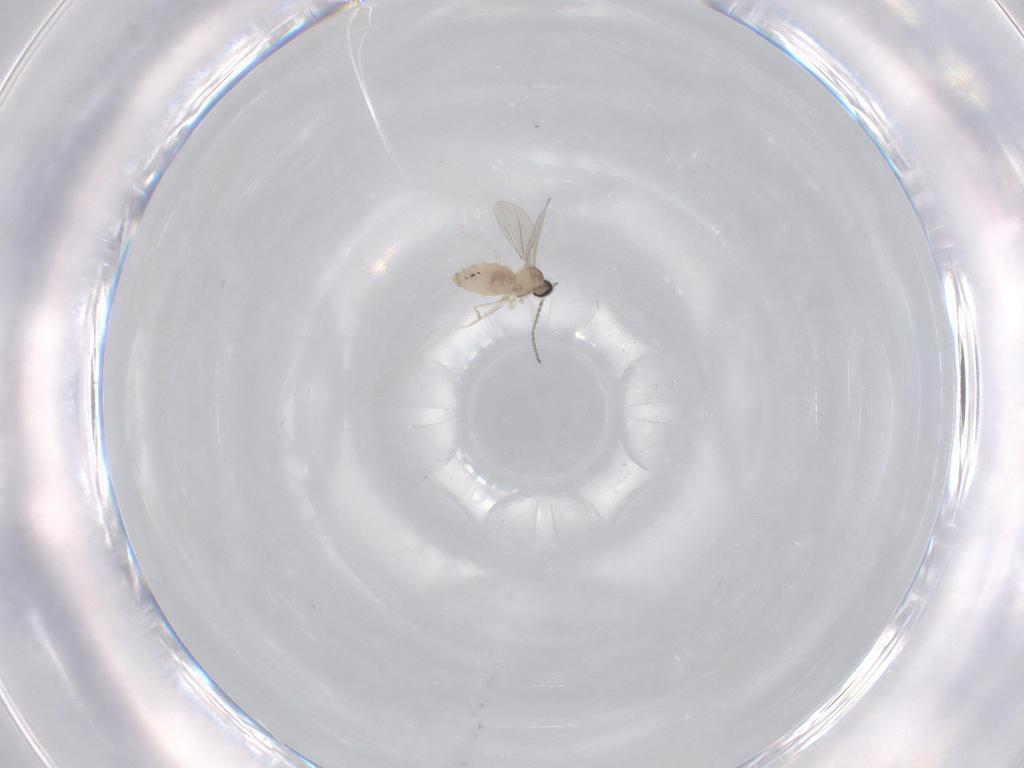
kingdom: Animalia
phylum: Arthropoda
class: Insecta
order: Diptera
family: Cecidomyiidae
